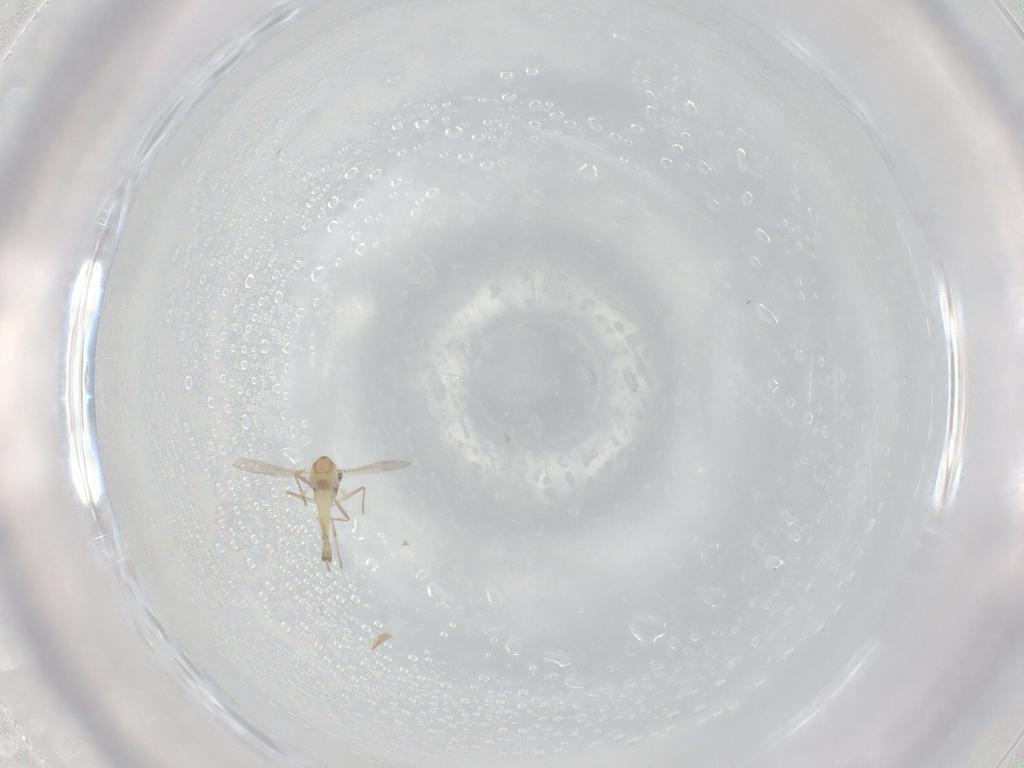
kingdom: Animalia
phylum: Arthropoda
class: Insecta
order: Diptera
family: Chironomidae
